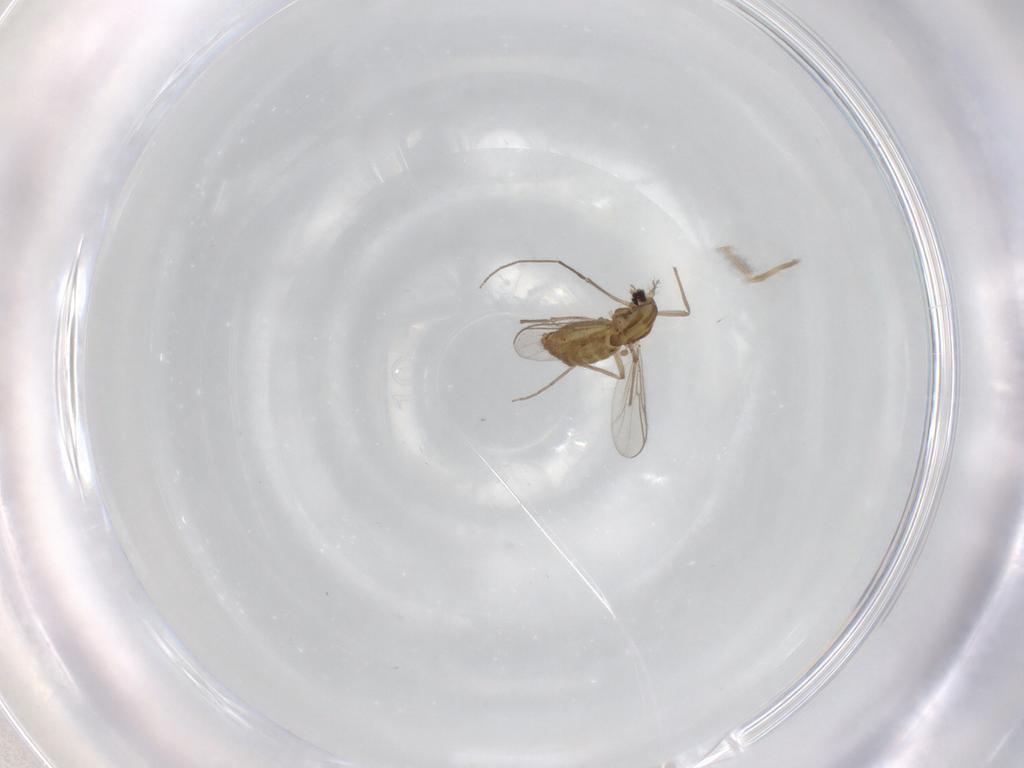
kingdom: Animalia
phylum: Arthropoda
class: Insecta
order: Diptera
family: Chironomidae
